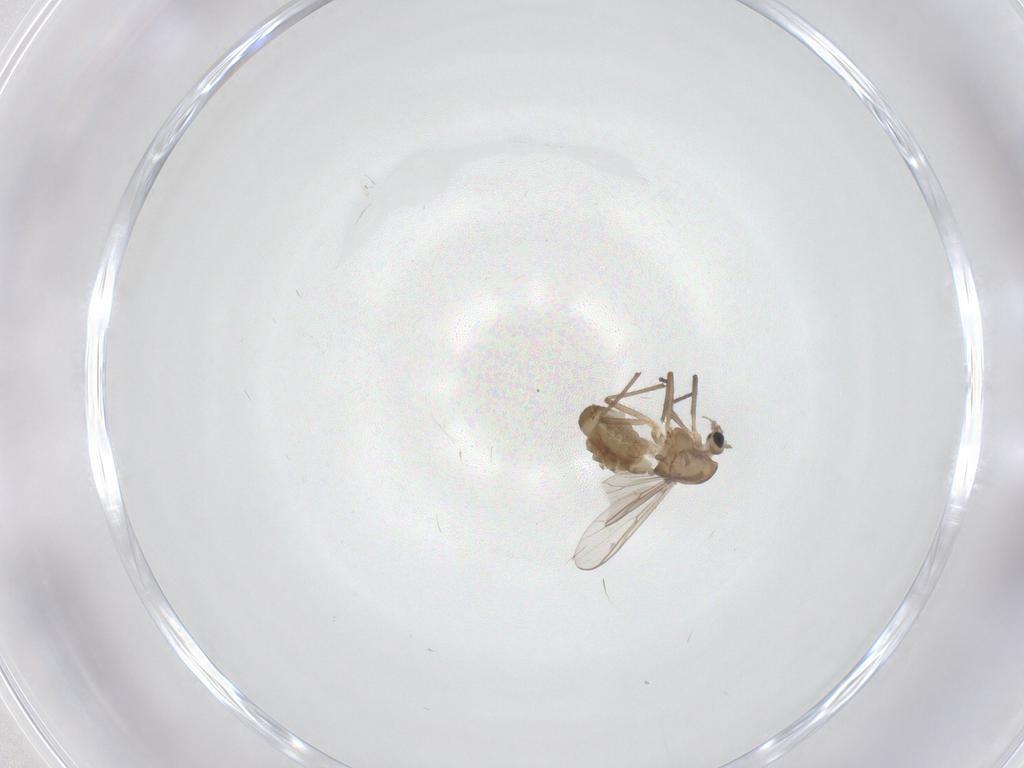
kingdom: Animalia
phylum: Arthropoda
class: Insecta
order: Diptera
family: Chironomidae
